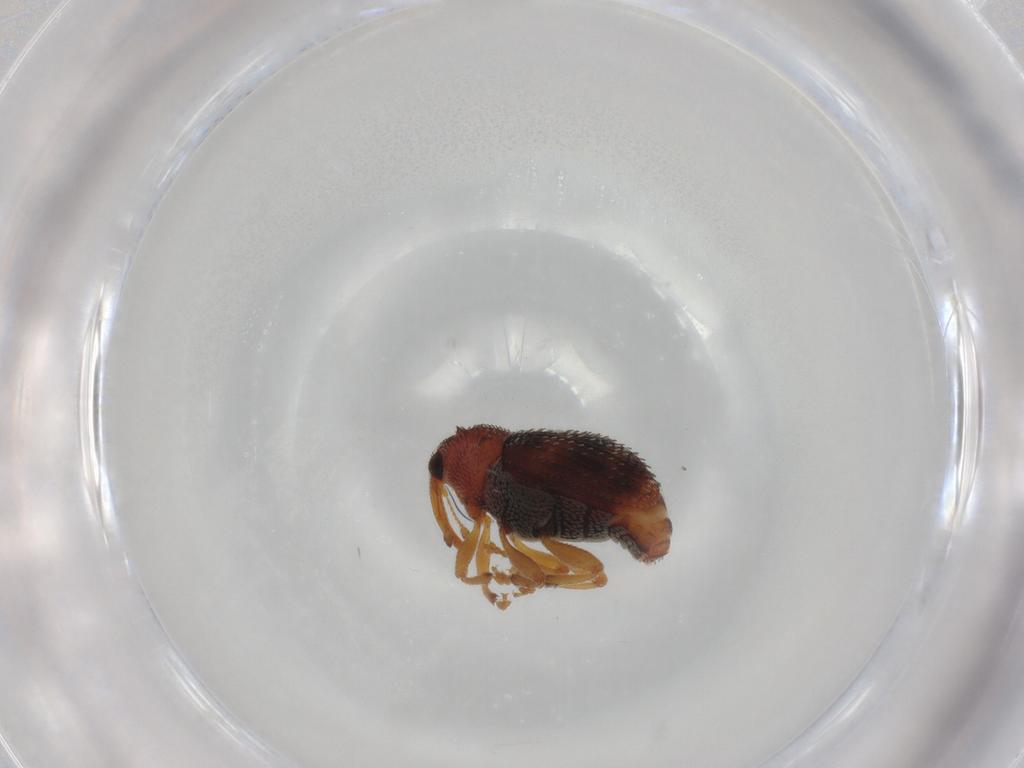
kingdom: Animalia
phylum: Arthropoda
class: Insecta
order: Coleoptera
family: Curculionidae
